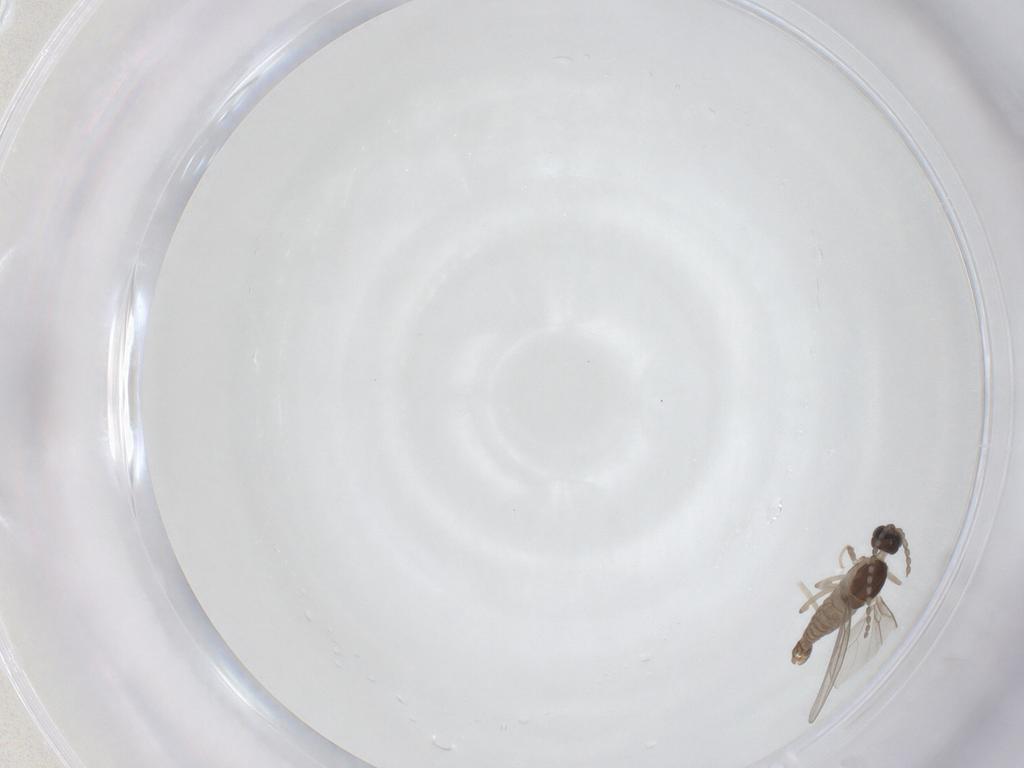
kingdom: Animalia
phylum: Arthropoda
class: Insecta
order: Diptera
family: Cecidomyiidae
